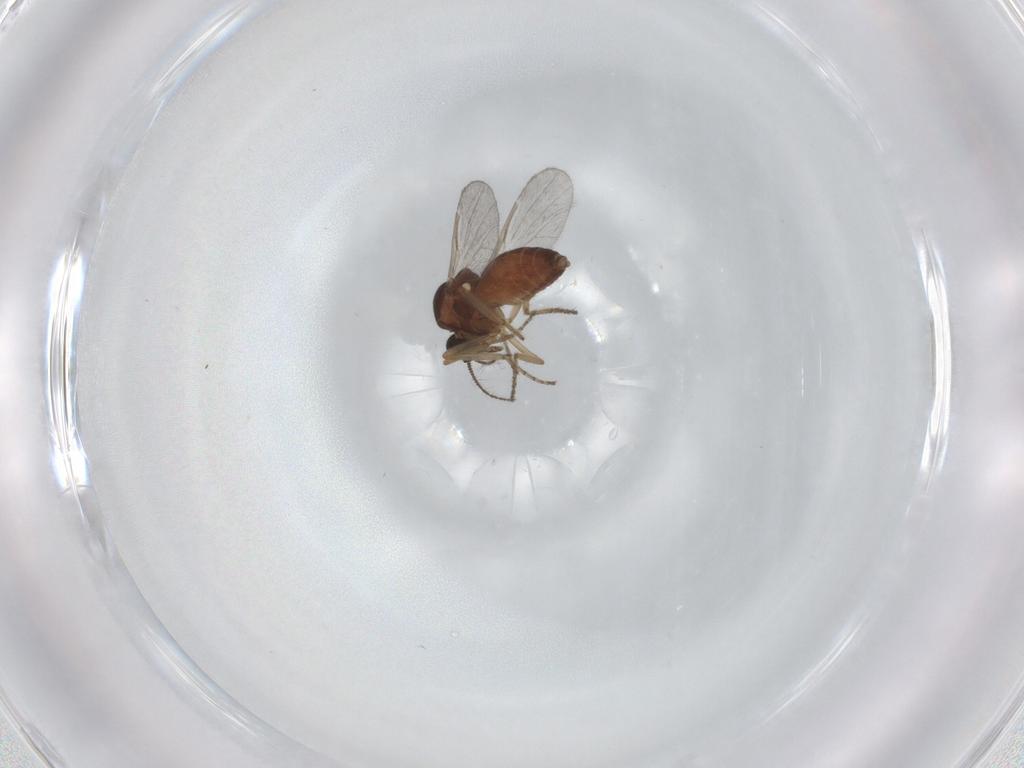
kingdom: Animalia
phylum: Arthropoda
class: Insecta
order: Diptera
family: Ceratopogonidae
